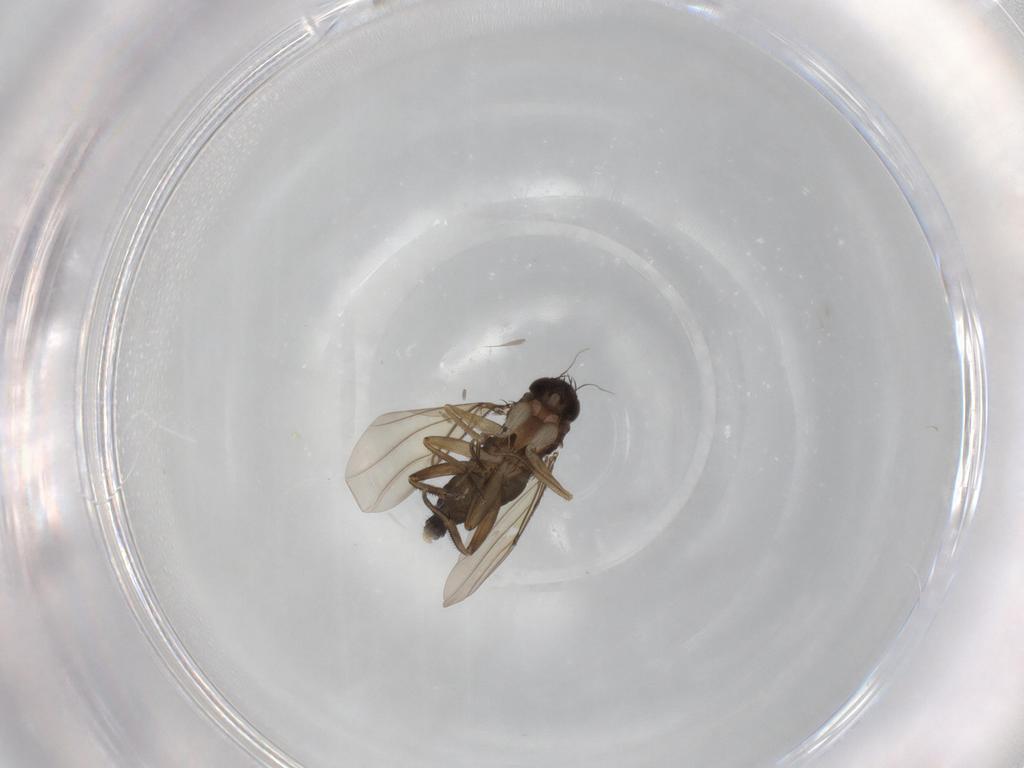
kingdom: Animalia
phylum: Arthropoda
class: Insecta
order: Diptera
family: Phoridae
